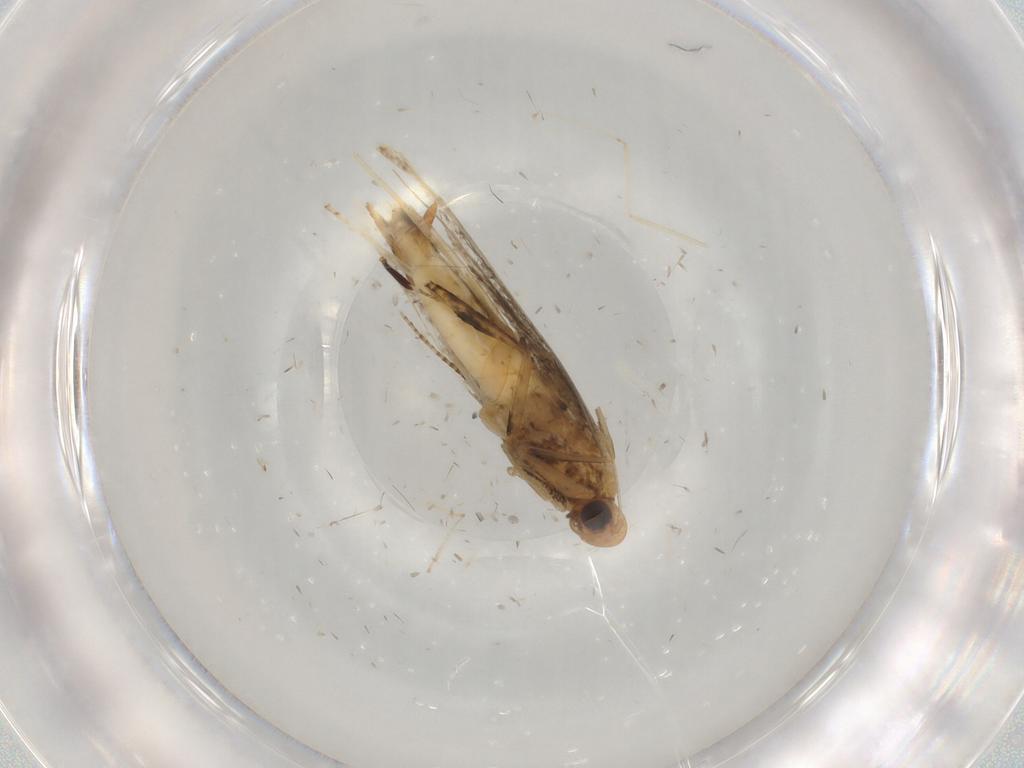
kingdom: Animalia
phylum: Arthropoda
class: Insecta
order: Lepidoptera
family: Gracillariidae
